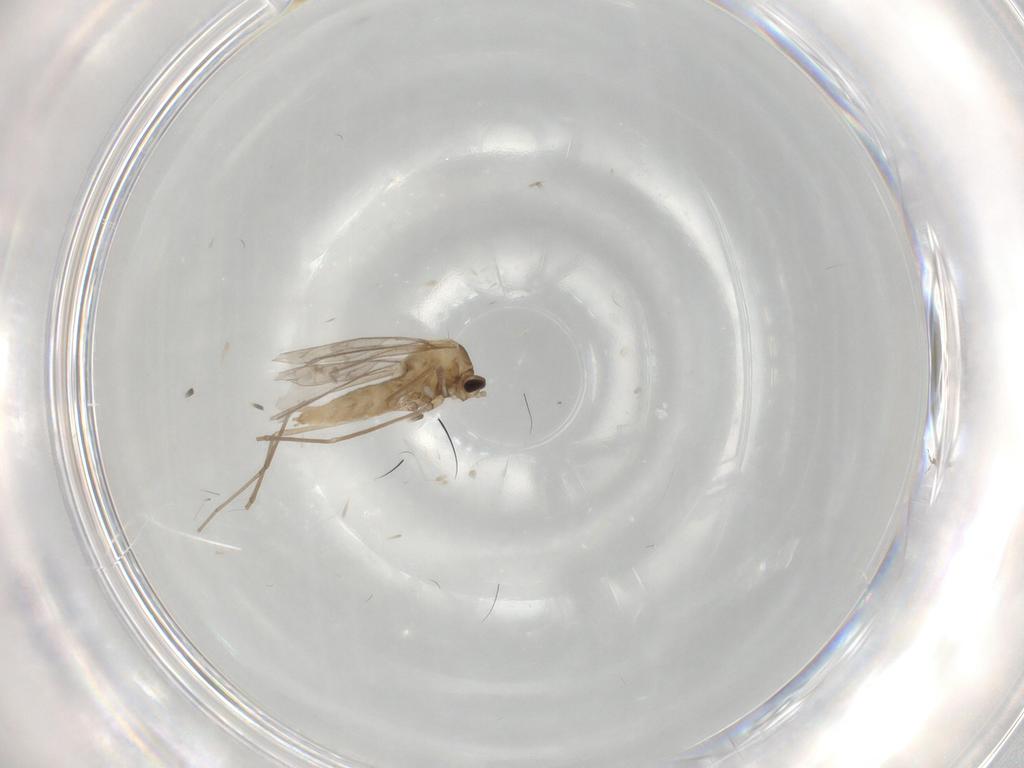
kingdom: Animalia
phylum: Arthropoda
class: Insecta
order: Diptera
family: Cecidomyiidae
